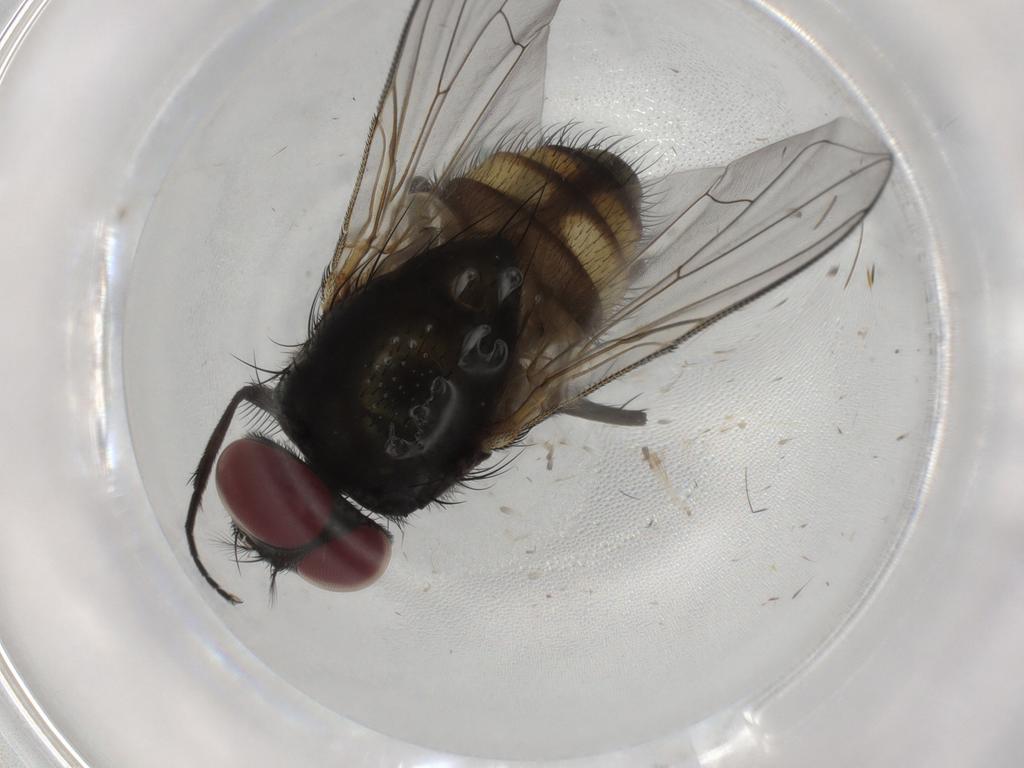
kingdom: Animalia
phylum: Arthropoda
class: Insecta
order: Diptera
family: Muscidae
